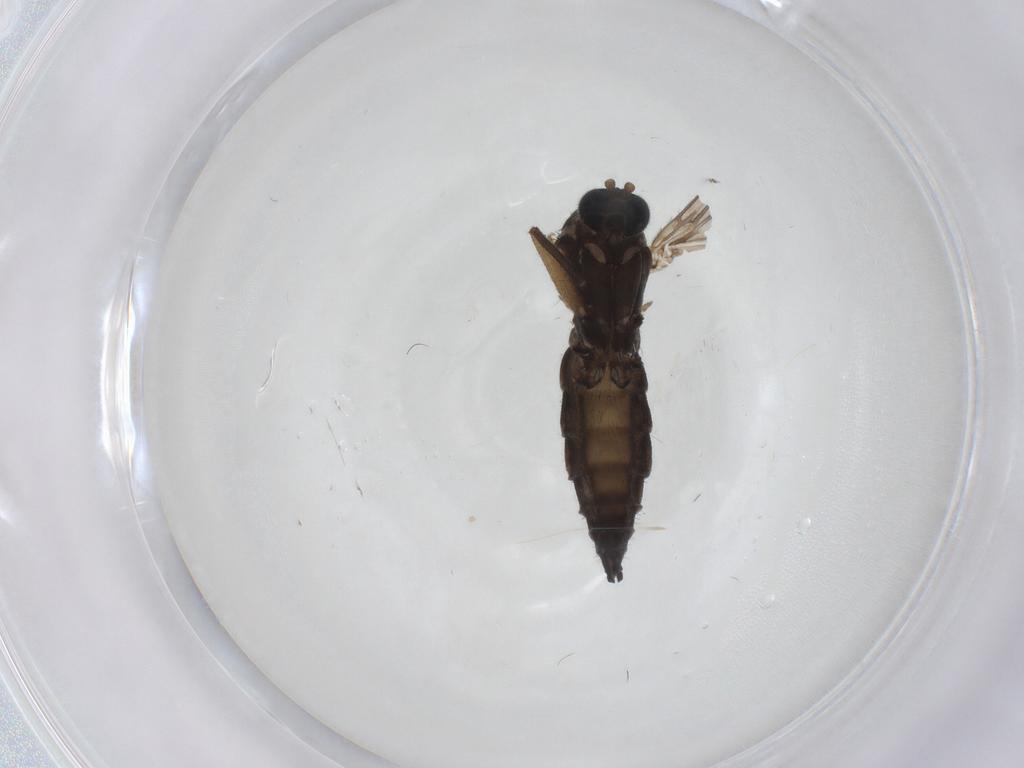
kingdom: Animalia
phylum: Arthropoda
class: Insecta
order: Diptera
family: Sciaridae
